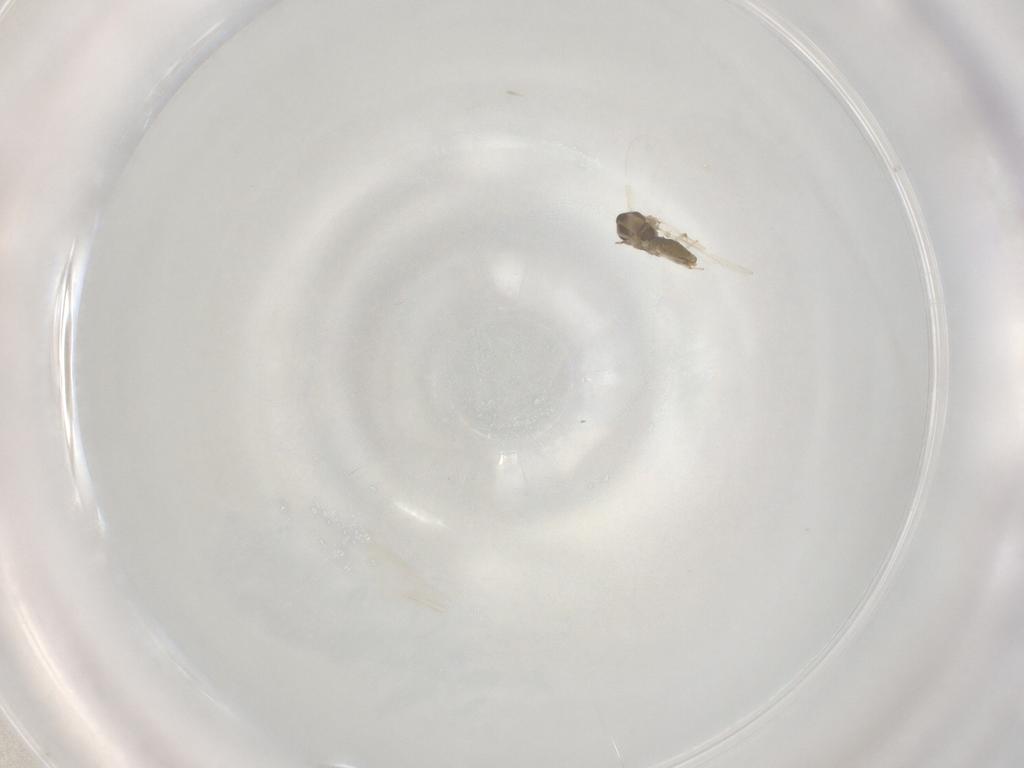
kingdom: Animalia
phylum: Arthropoda
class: Insecta
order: Diptera
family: Chironomidae
